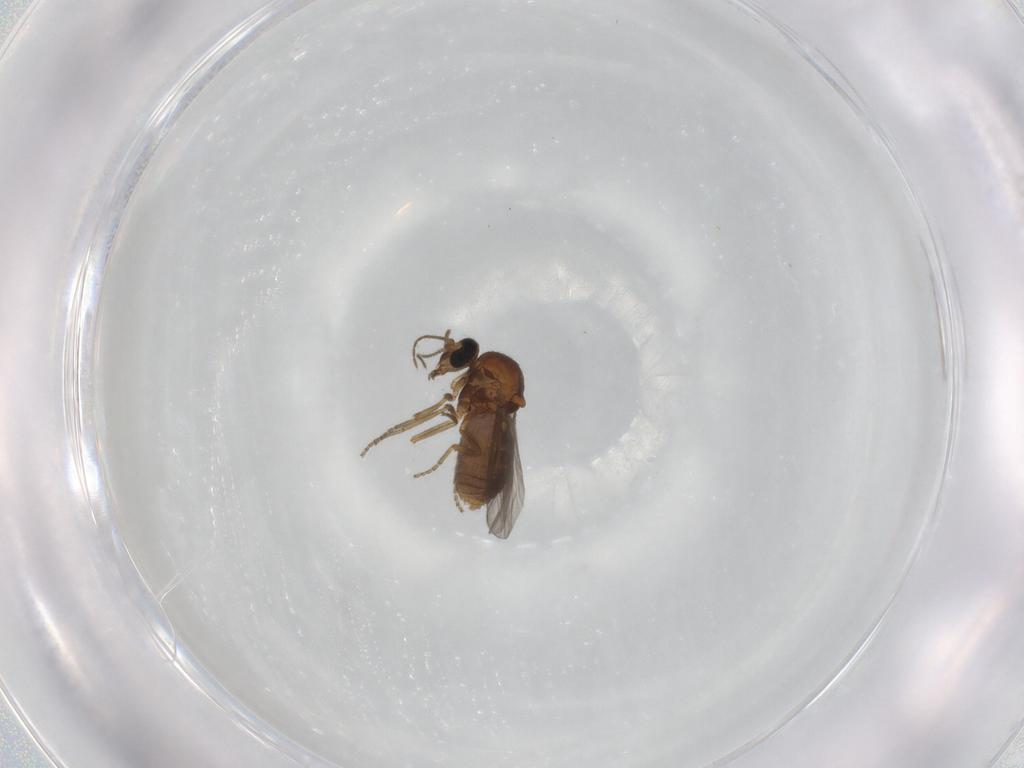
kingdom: Animalia
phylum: Arthropoda
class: Insecta
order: Diptera
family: Ceratopogonidae
